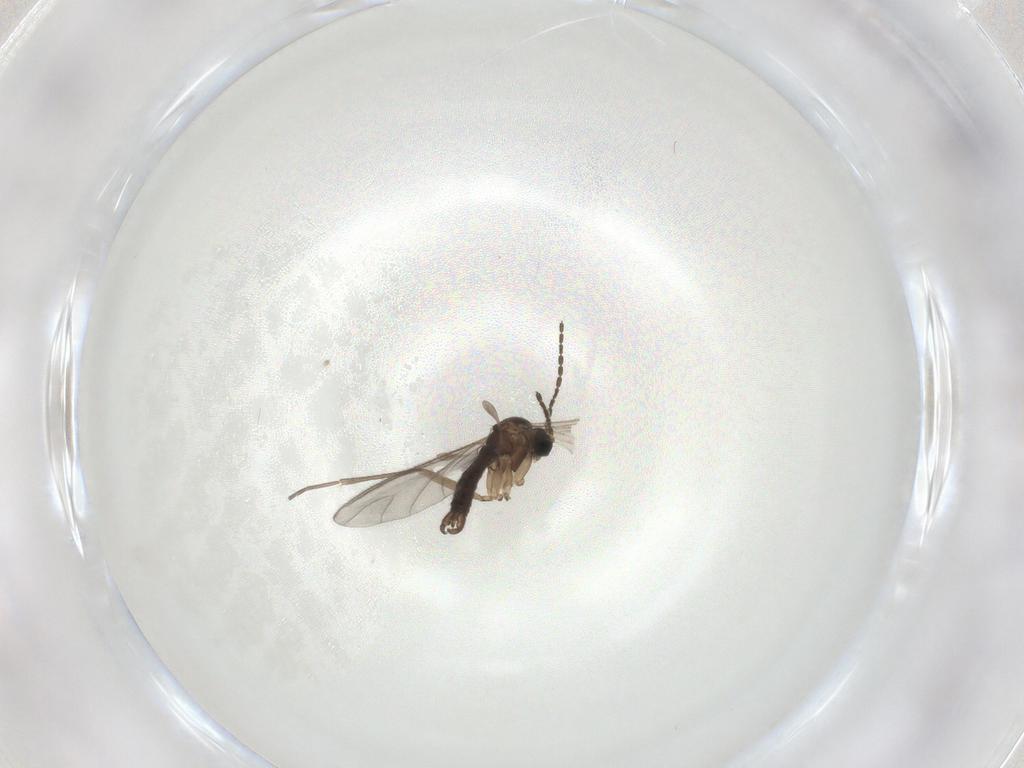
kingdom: Animalia
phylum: Arthropoda
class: Insecta
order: Diptera
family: Sciaridae
